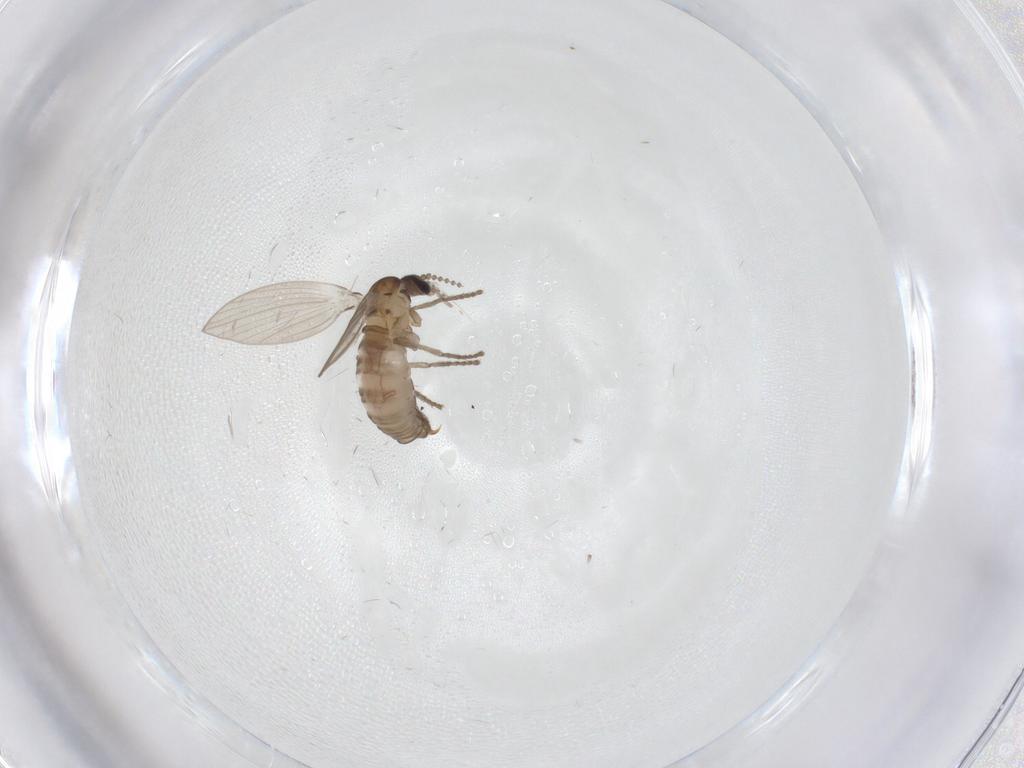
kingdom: Animalia
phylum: Arthropoda
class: Insecta
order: Diptera
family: Psychodidae
